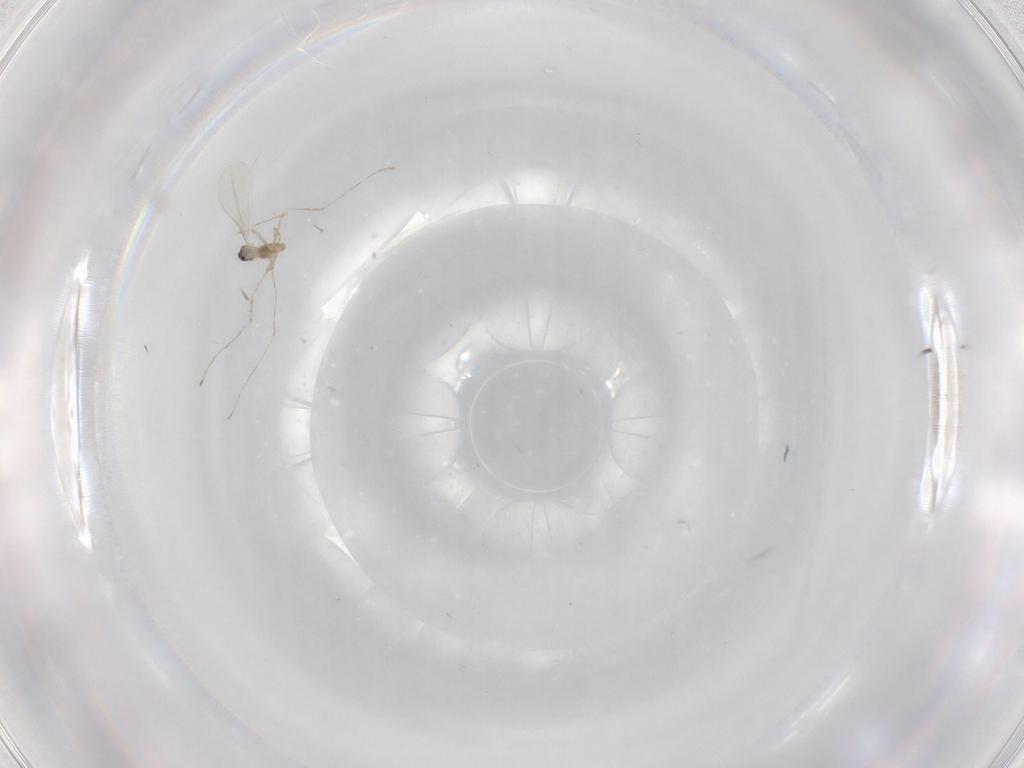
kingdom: Animalia
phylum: Arthropoda
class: Insecta
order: Diptera
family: Cecidomyiidae
